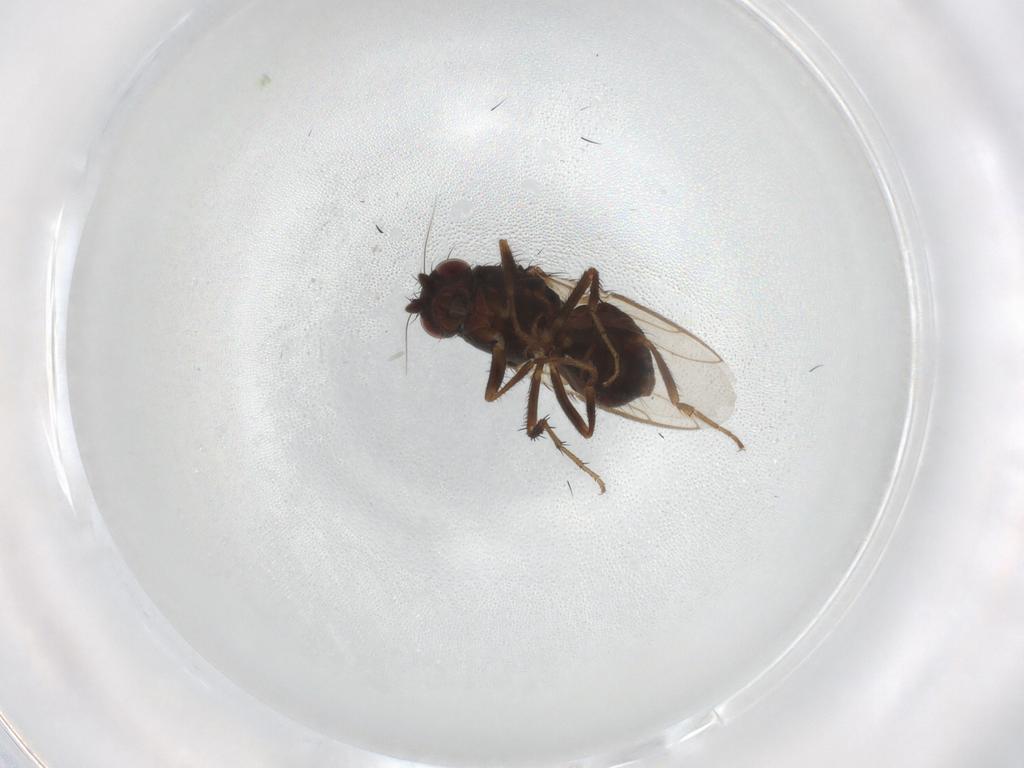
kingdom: Animalia
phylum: Arthropoda
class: Insecta
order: Diptera
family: Sphaeroceridae
